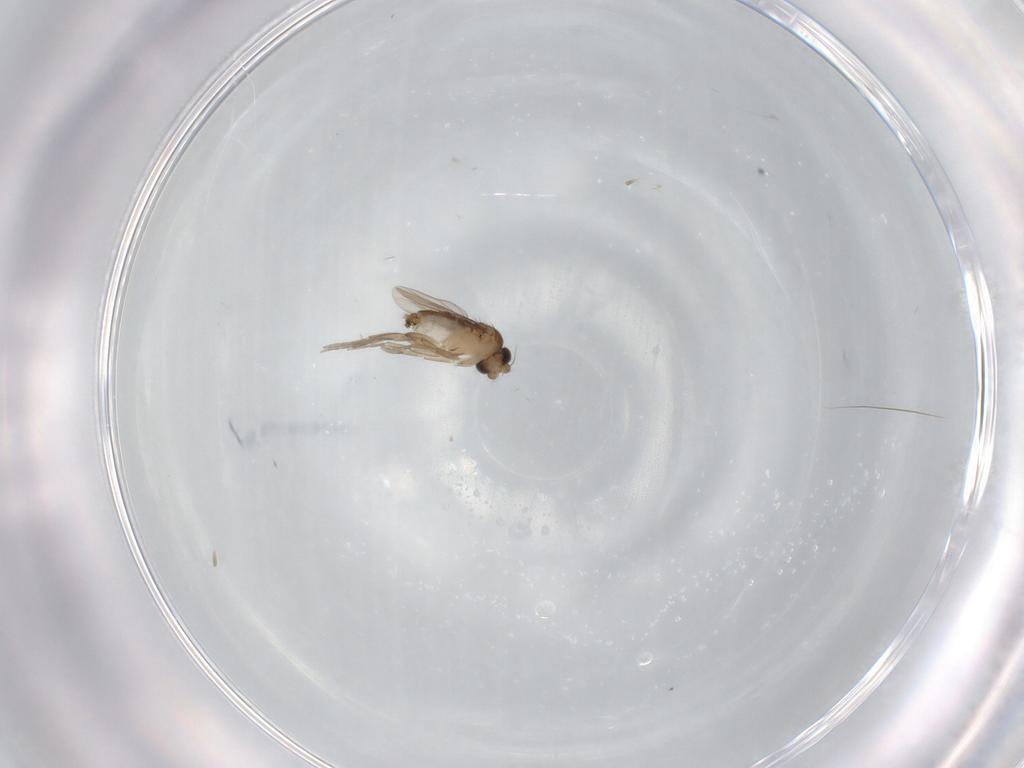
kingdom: Animalia
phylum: Arthropoda
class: Insecta
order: Diptera
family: Phoridae
